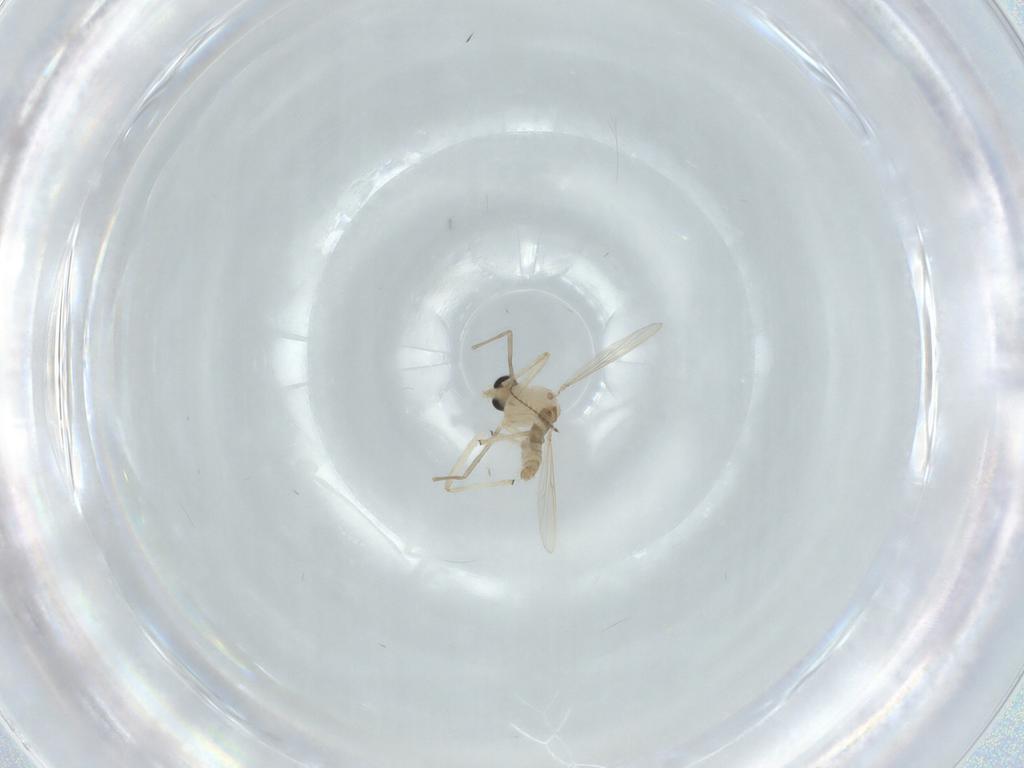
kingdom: Animalia
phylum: Arthropoda
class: Insecta
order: Diptera
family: Chironomidae
